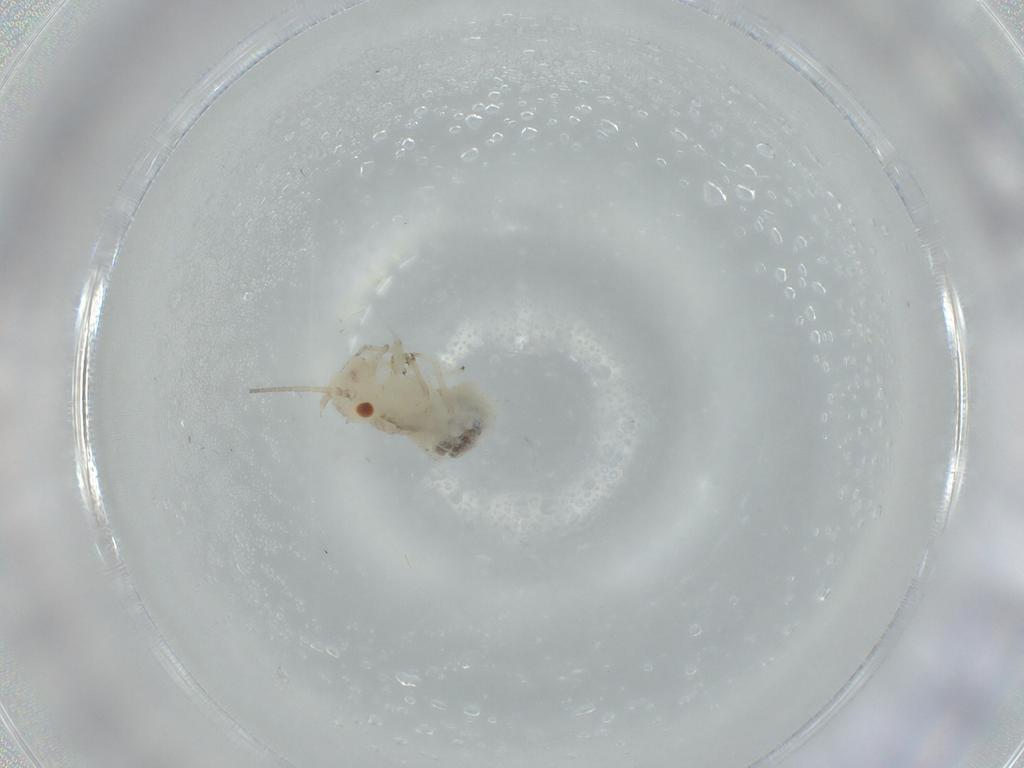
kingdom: Animalia
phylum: Arthropoda
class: Insecta
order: Psocodea
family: Caeciliusidae
